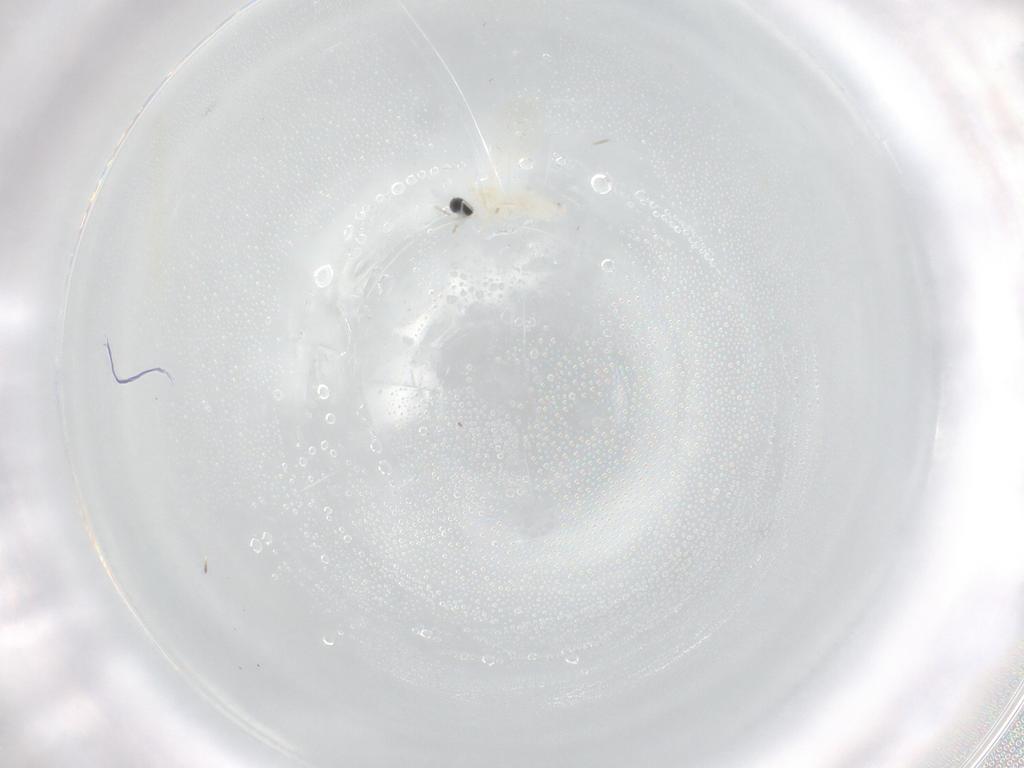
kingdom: Animalia
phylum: Arthropoda
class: Insecta
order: Diptera
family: Cecidomyiidae
